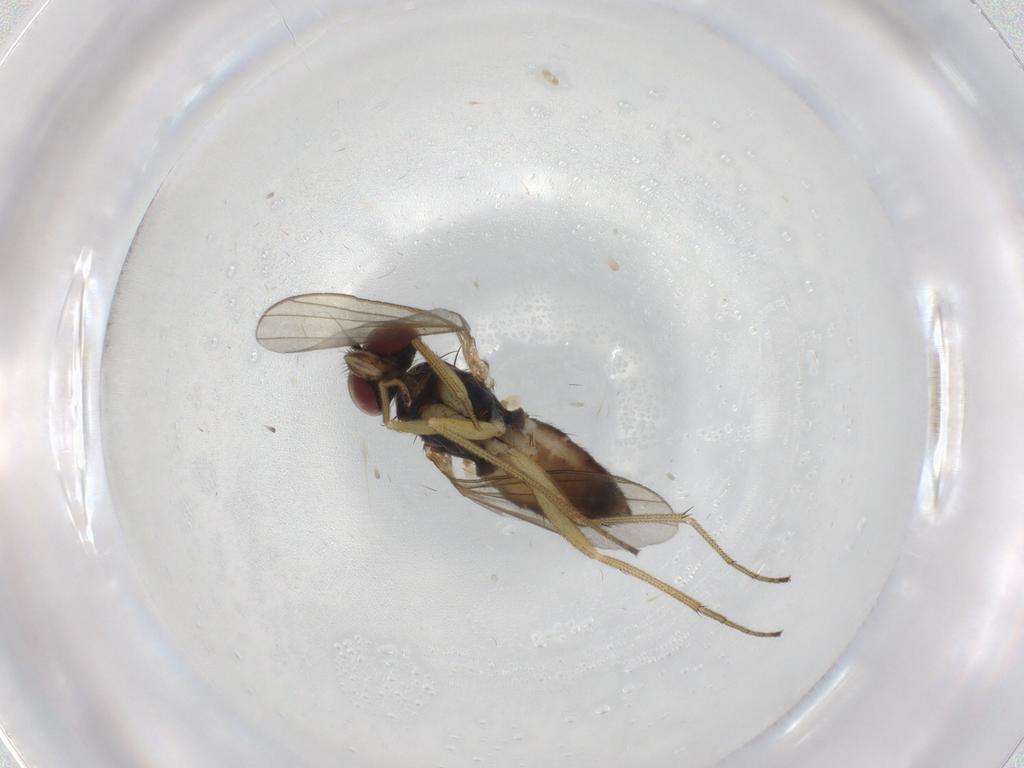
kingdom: Animalia
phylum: Arthropoda
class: Insecta
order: Diptera
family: Dolichopodidae
